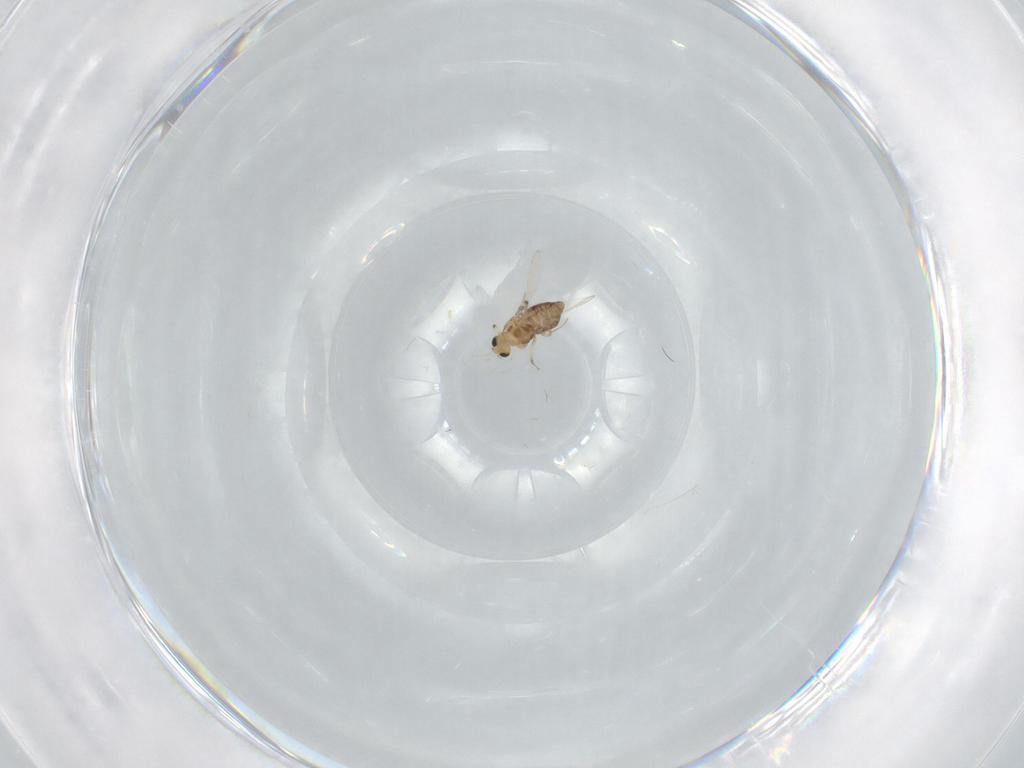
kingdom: Animalia
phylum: Arthropoda
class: Insecta
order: Diptera
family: Chironomidae
